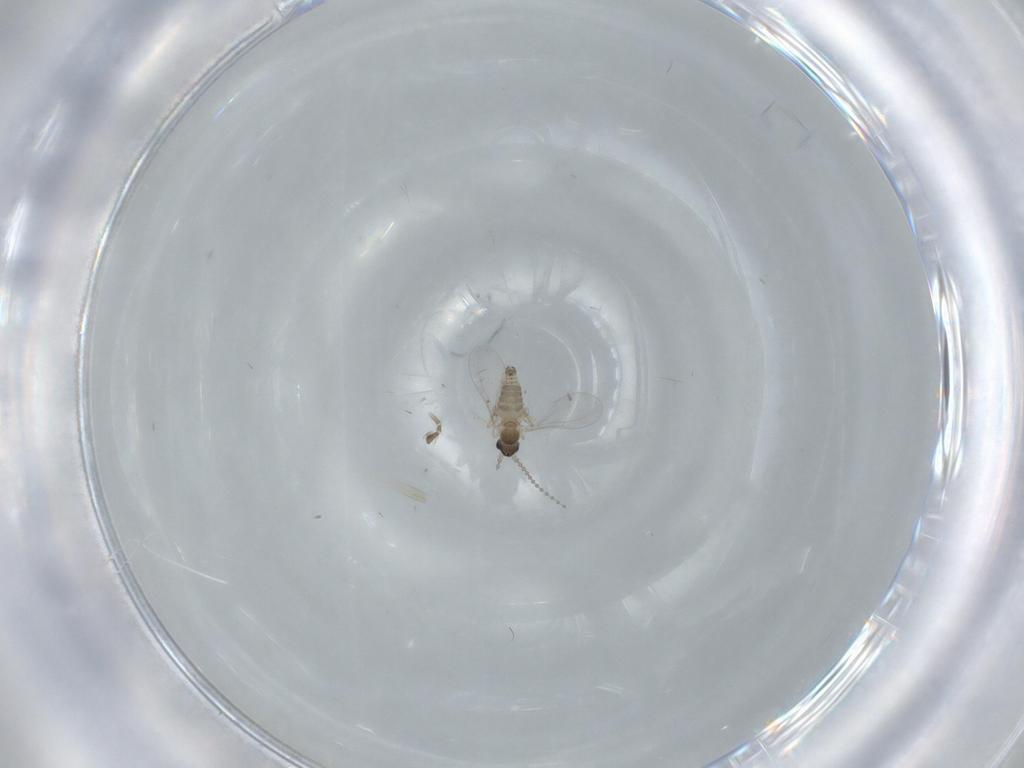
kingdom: Animalia
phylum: Arthropoda
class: Insecta
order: Diptera
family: Cecidomyiidae
